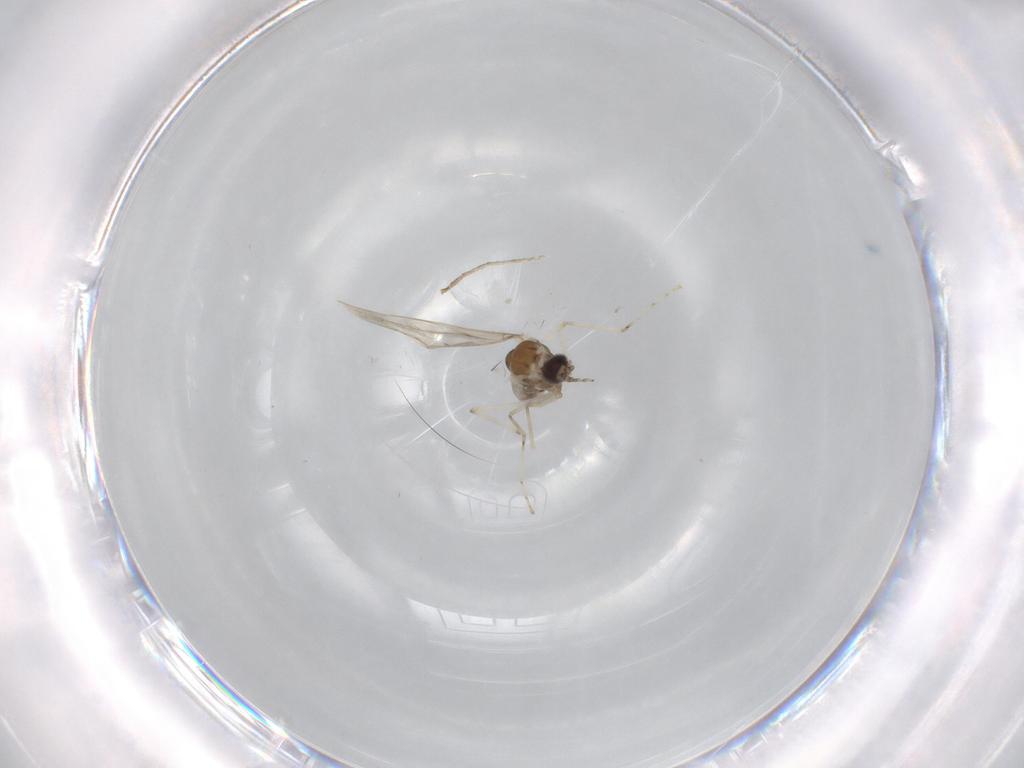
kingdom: Animalia
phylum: Arthropoda
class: Insecta
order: Diptera
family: Cecidomyiidae
